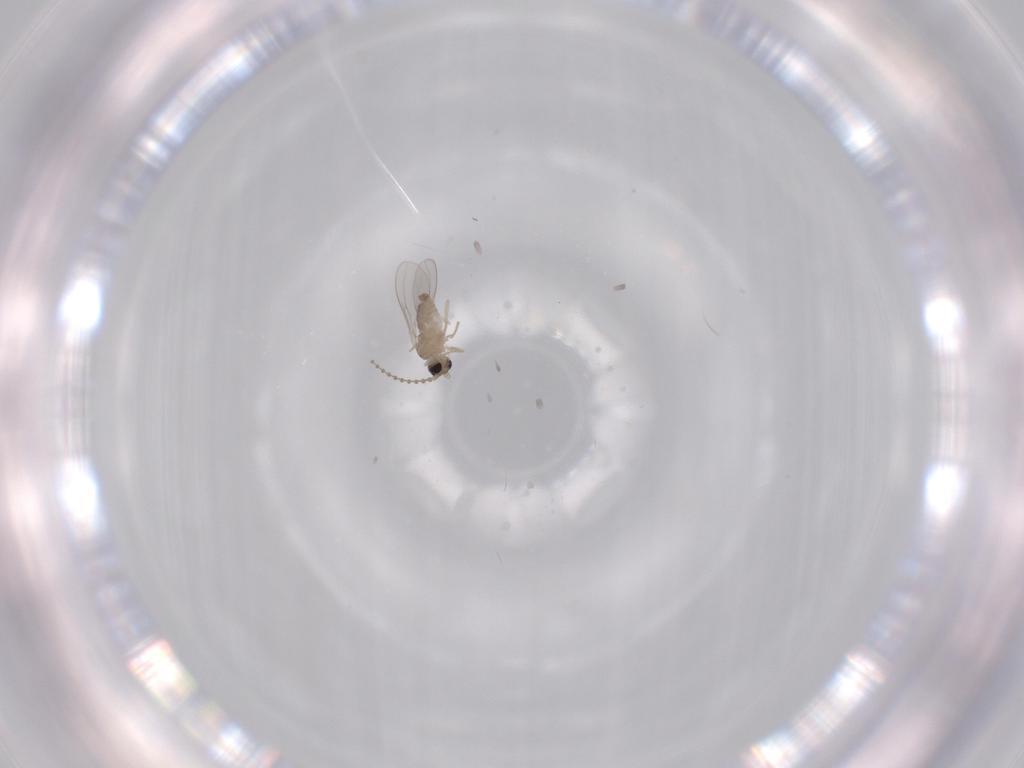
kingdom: Animalia
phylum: Arthropoda
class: Insecta
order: Diptera
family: Cecidomyiidae
